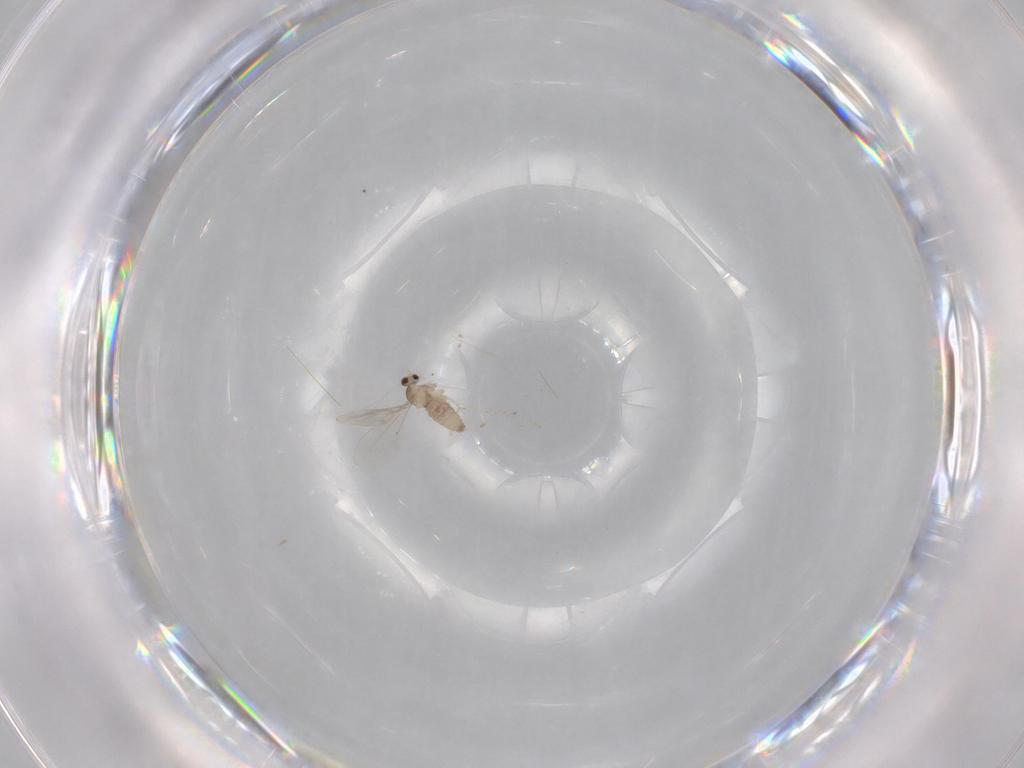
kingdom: Animalia
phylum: Arthropoda
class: Insecta
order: Diptera
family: Cecidomyiidae
